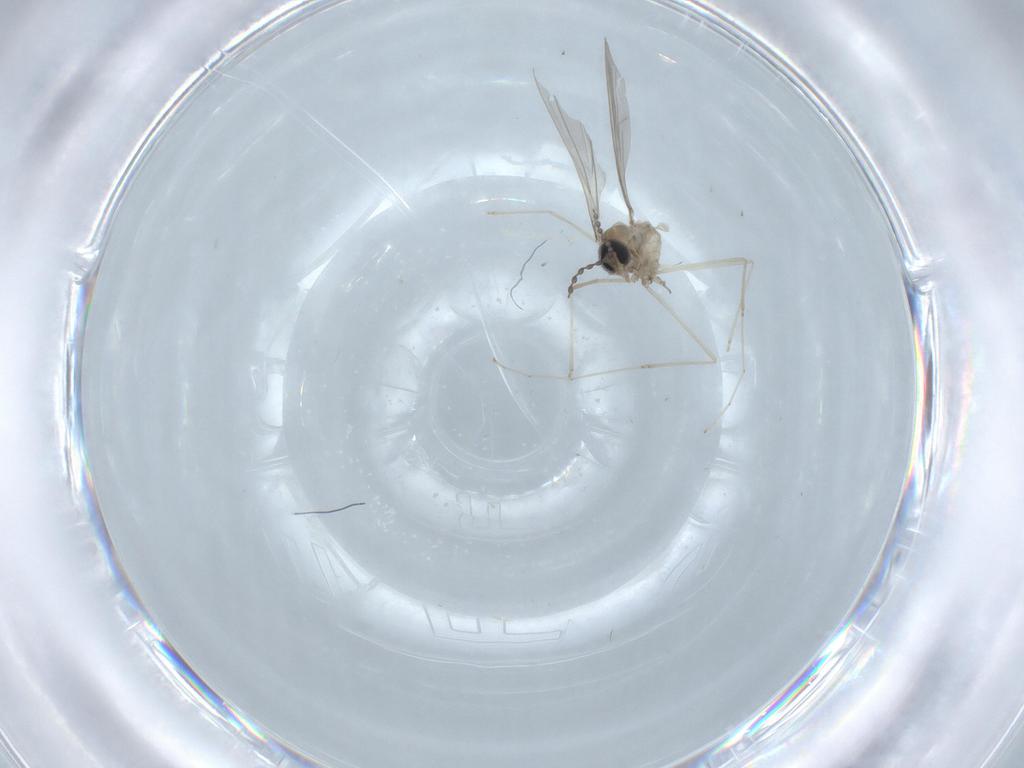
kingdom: Animalia
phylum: Arthropoda
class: Insecta
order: Diptera
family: Cecidomyiidae
